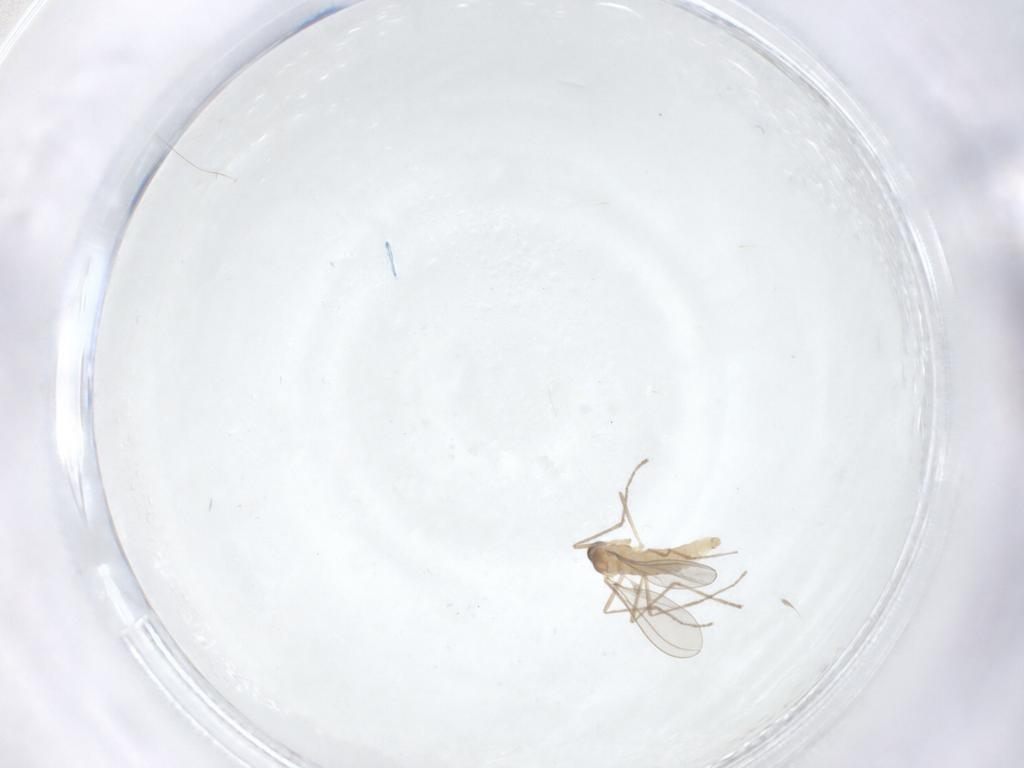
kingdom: Animalia
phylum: Arthropoda
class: Insecta
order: Diptera
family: Cecidomyiidae
